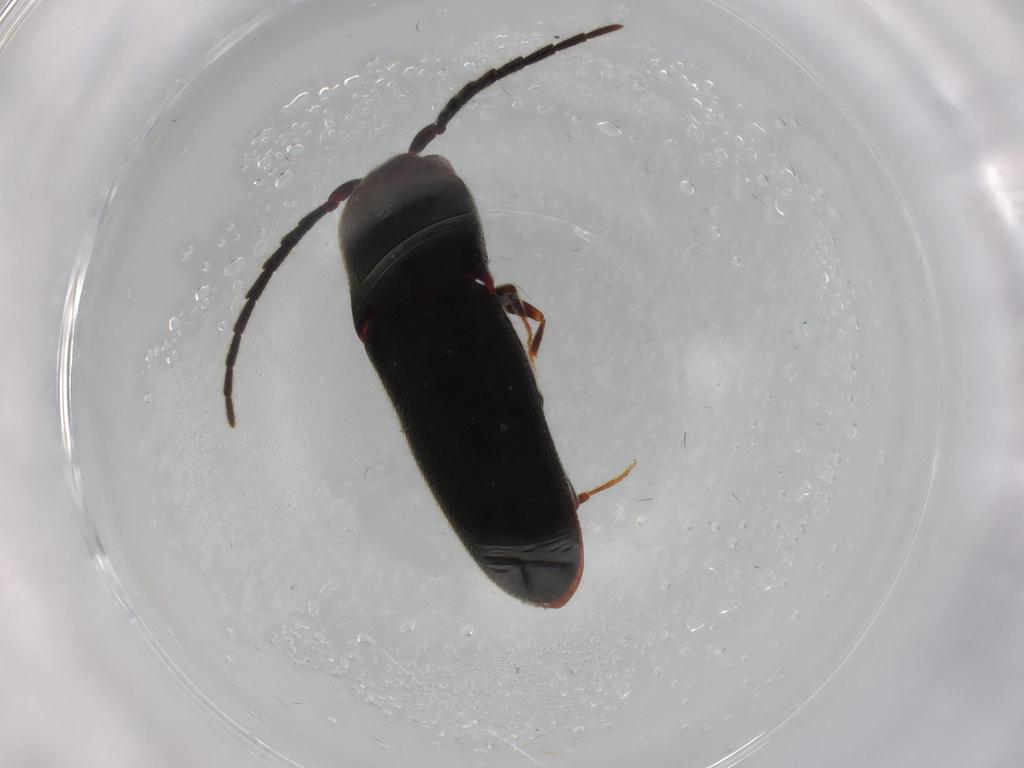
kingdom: Animalia
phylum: Arthropoda
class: Insecta
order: Coleoptera
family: Eucnemidae
